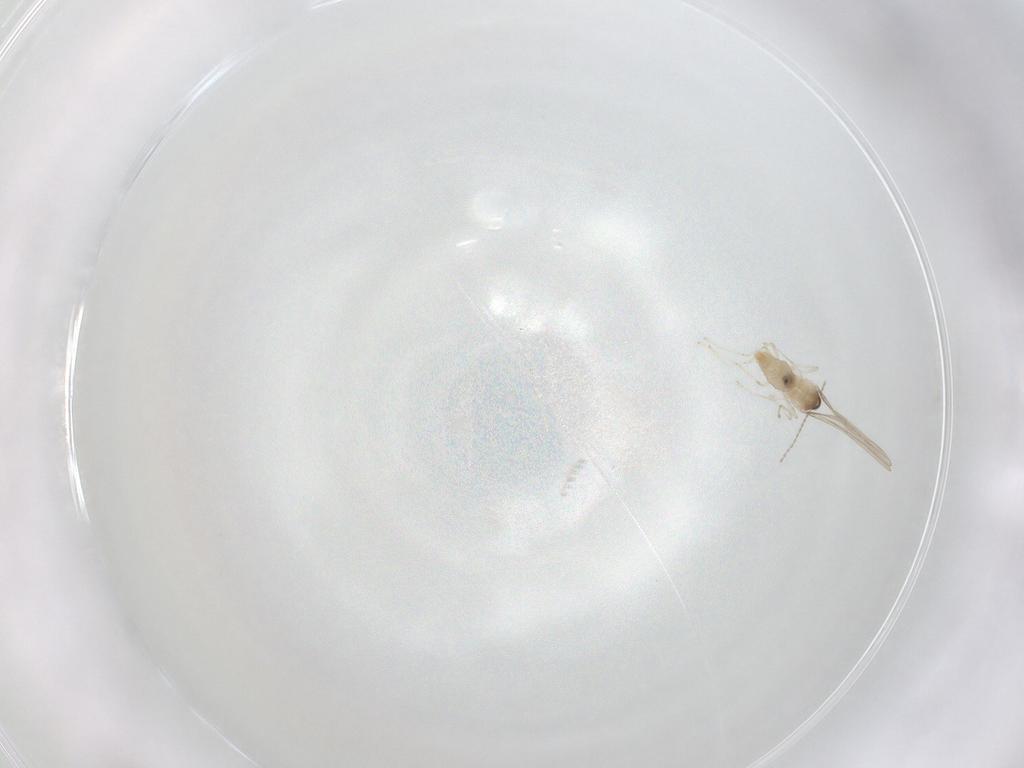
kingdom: Animalia
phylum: Arthropoda
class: Insecta
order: Diptera
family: Cecidomyiidae
